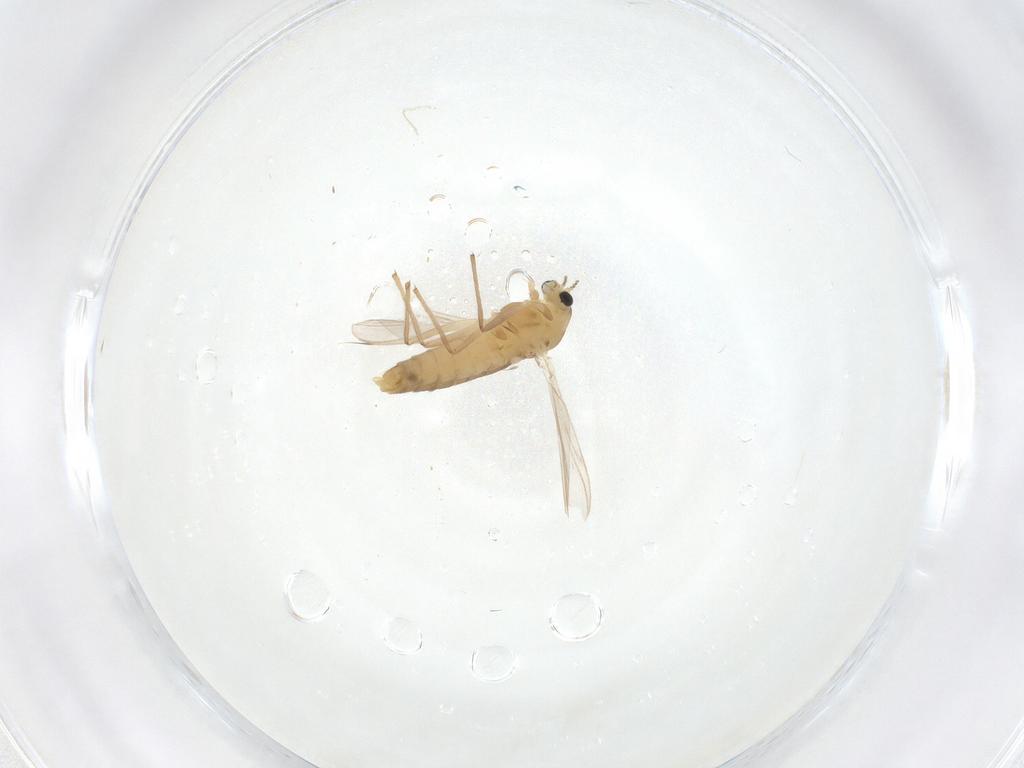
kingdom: Animalia
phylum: Arthropoda
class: Insecta
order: Diptera
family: Chironomidae
